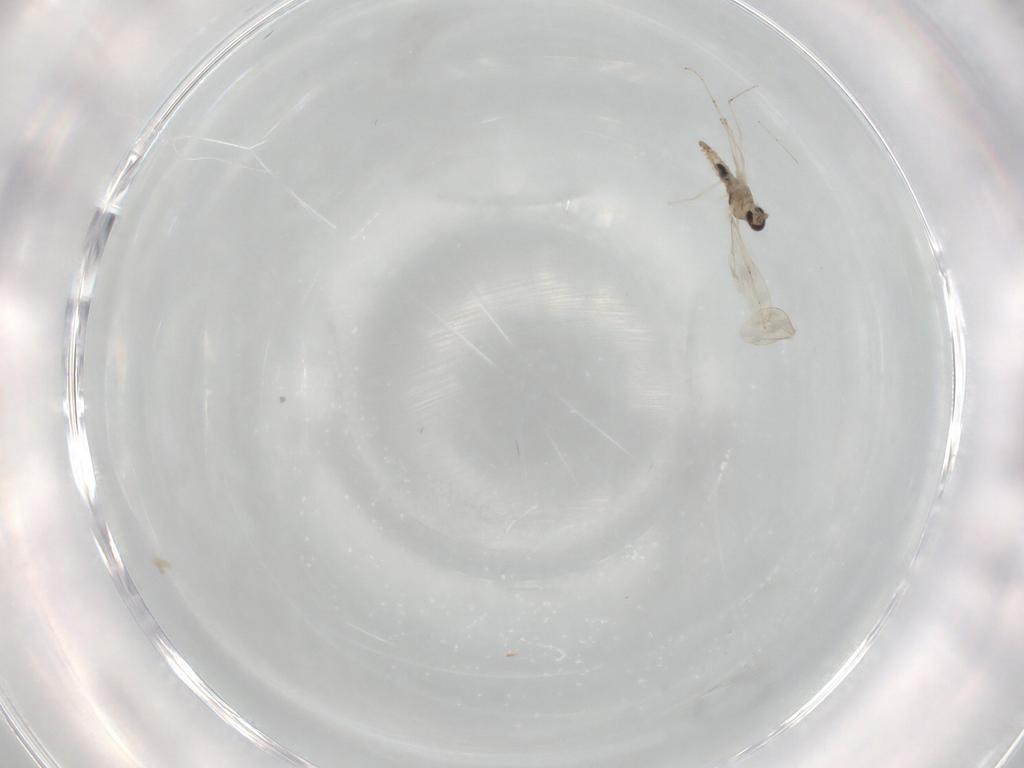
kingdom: Animalia
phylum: Arthropoda
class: Insecta
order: Diptera
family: Cecidomyiidae
